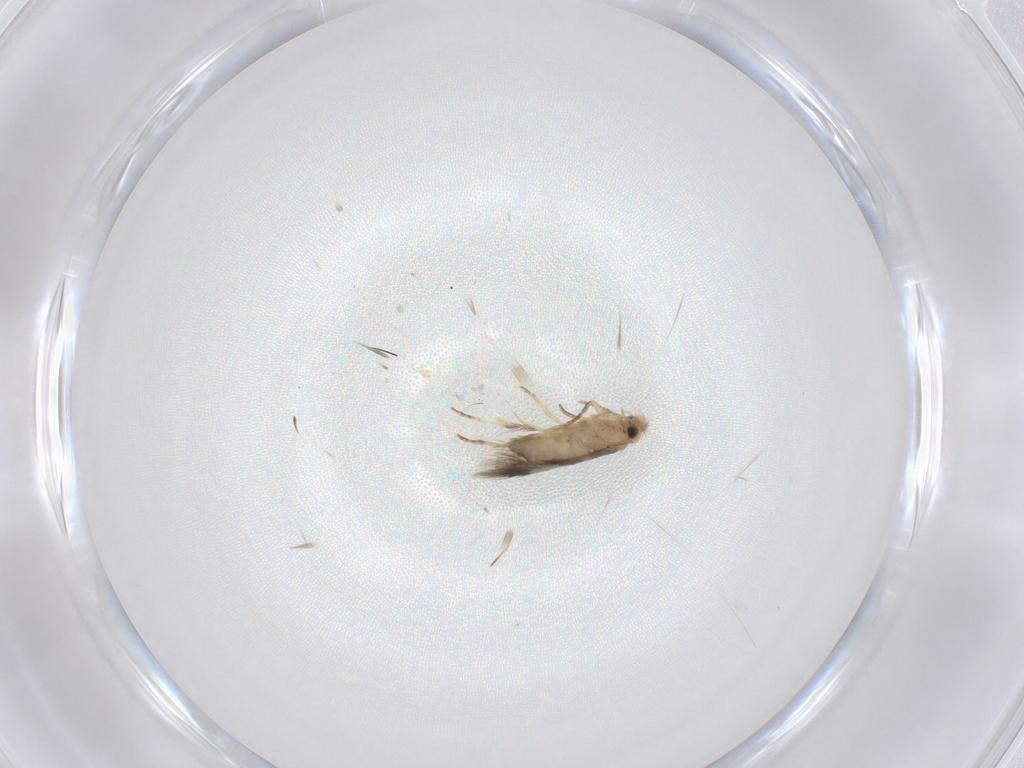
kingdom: Animalia
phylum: Arthropoda
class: Insecta
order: Lepidoptera
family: Nepticulidae
